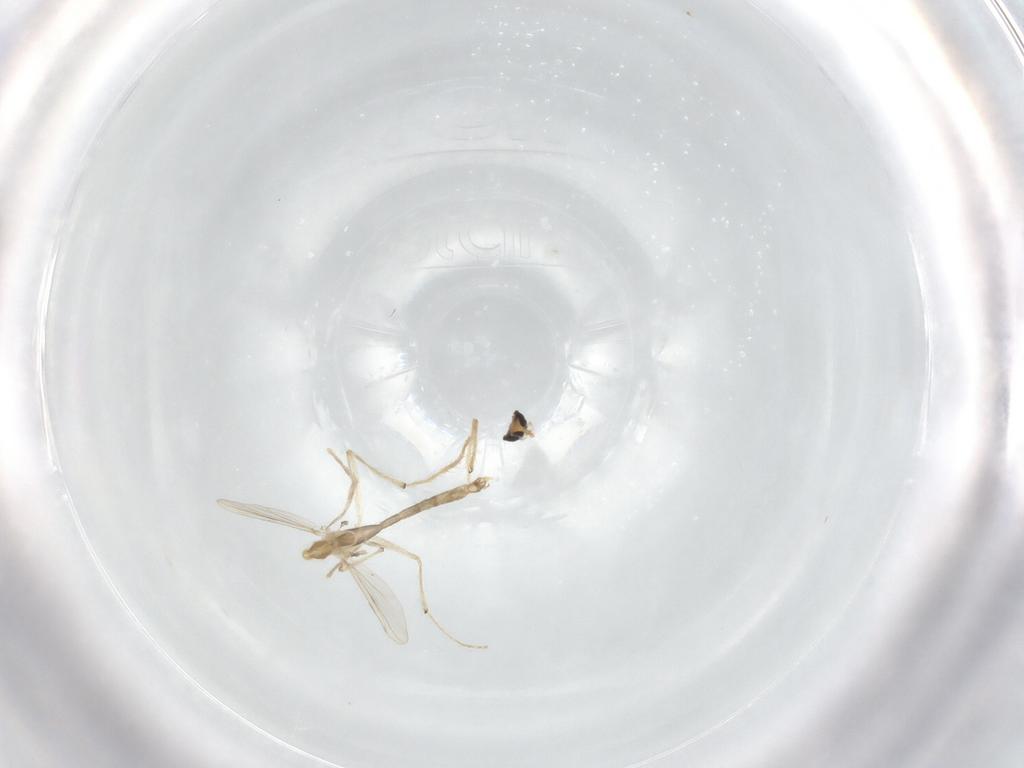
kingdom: Animalia
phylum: Arthropoda
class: Insecta
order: Diptera
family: Chironomidae
